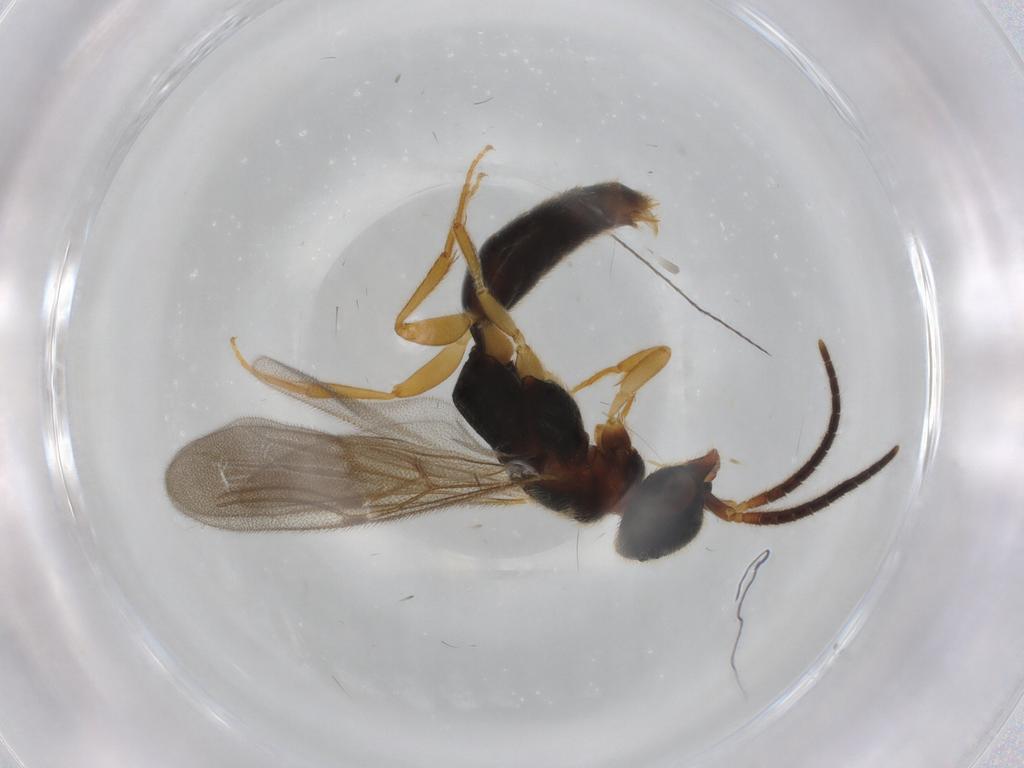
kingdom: Animalia
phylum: Arthropoda
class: Insecta
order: Hymenoptera
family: Bethylidae
